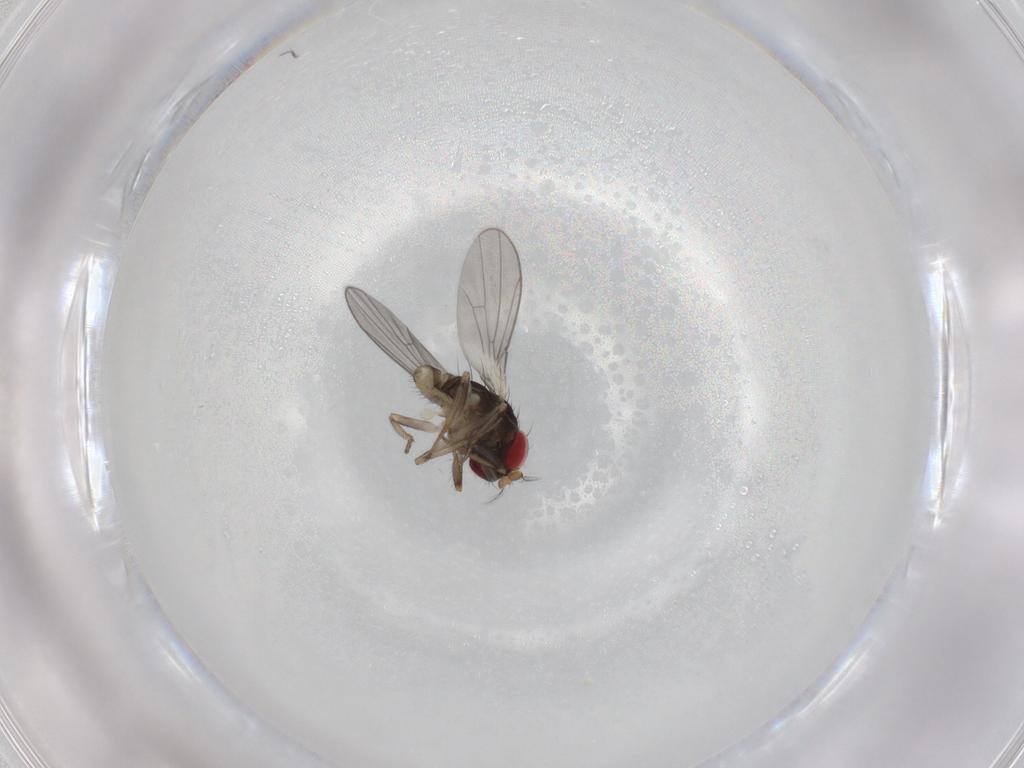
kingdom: Animalia
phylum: Arthropoda
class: Insecta
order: Diptera
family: Drosophilidae
